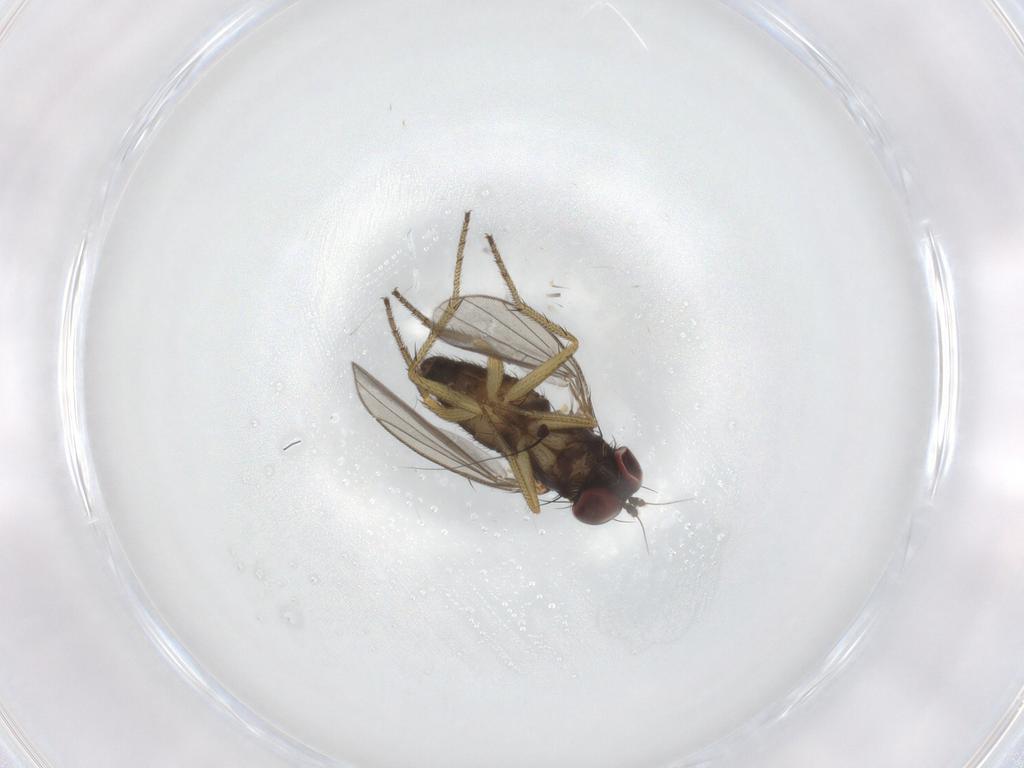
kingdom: Animalia
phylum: Arthropoda
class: Insecta
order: Diptera
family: Dolichopodidae
